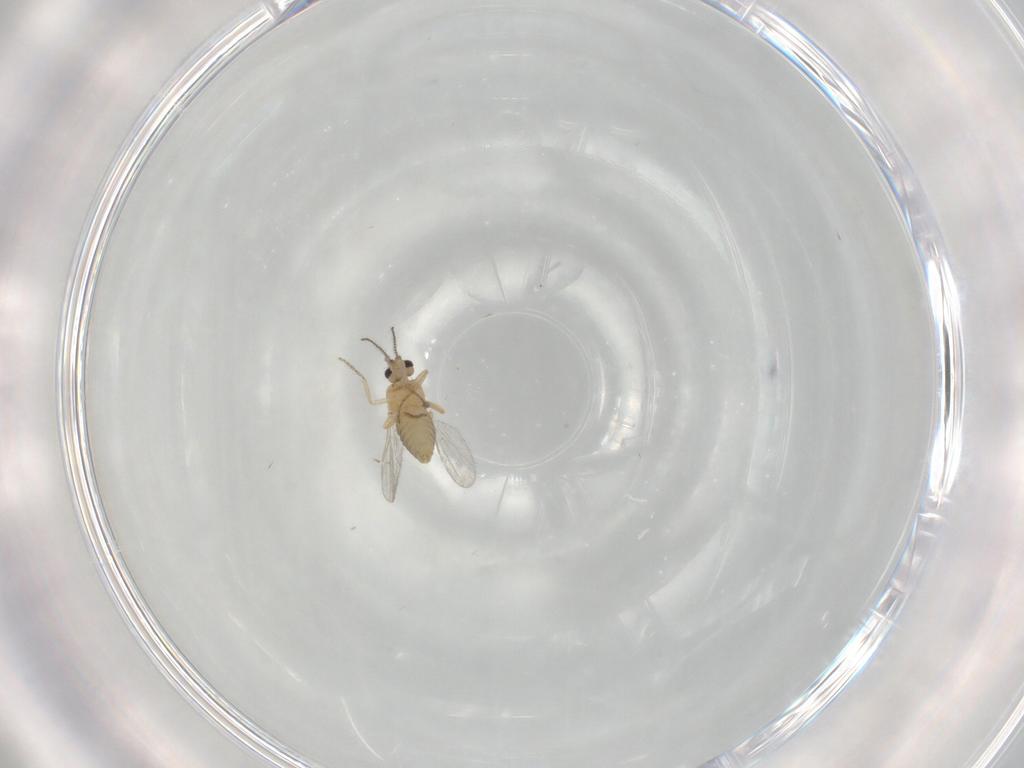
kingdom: Animalia
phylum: Arthropoda
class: Insecta
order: Diptera
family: Ceratopogonidae
